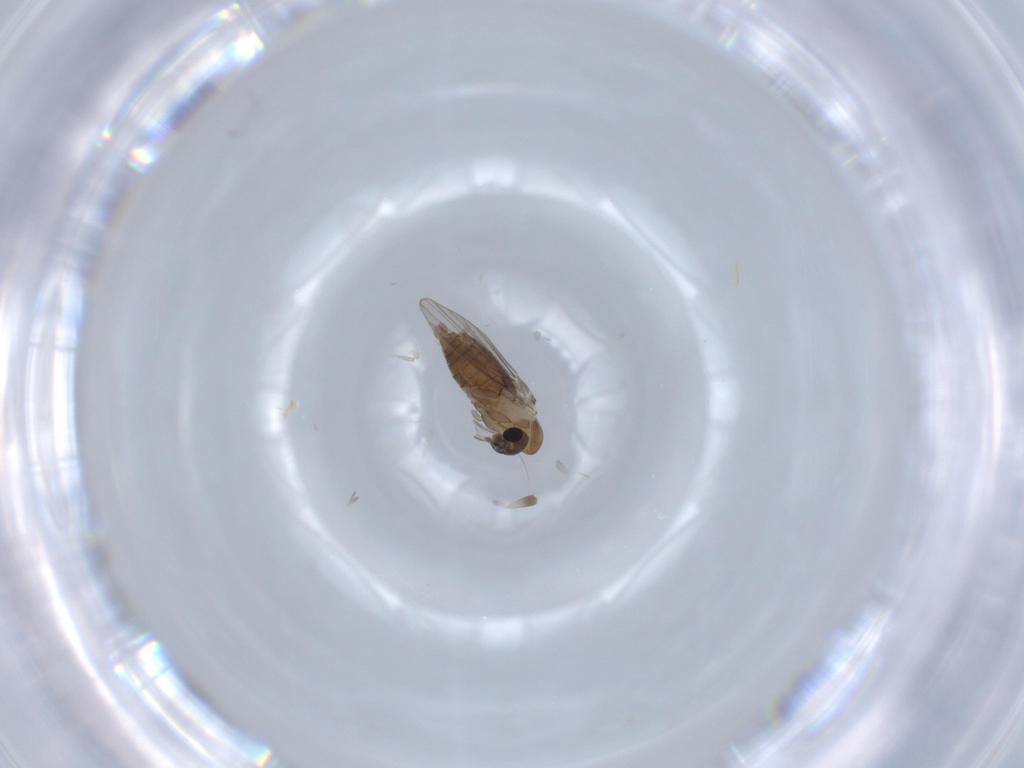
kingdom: Animalia
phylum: Arthropoda
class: Insecta
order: Diptera
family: Psychodidae
